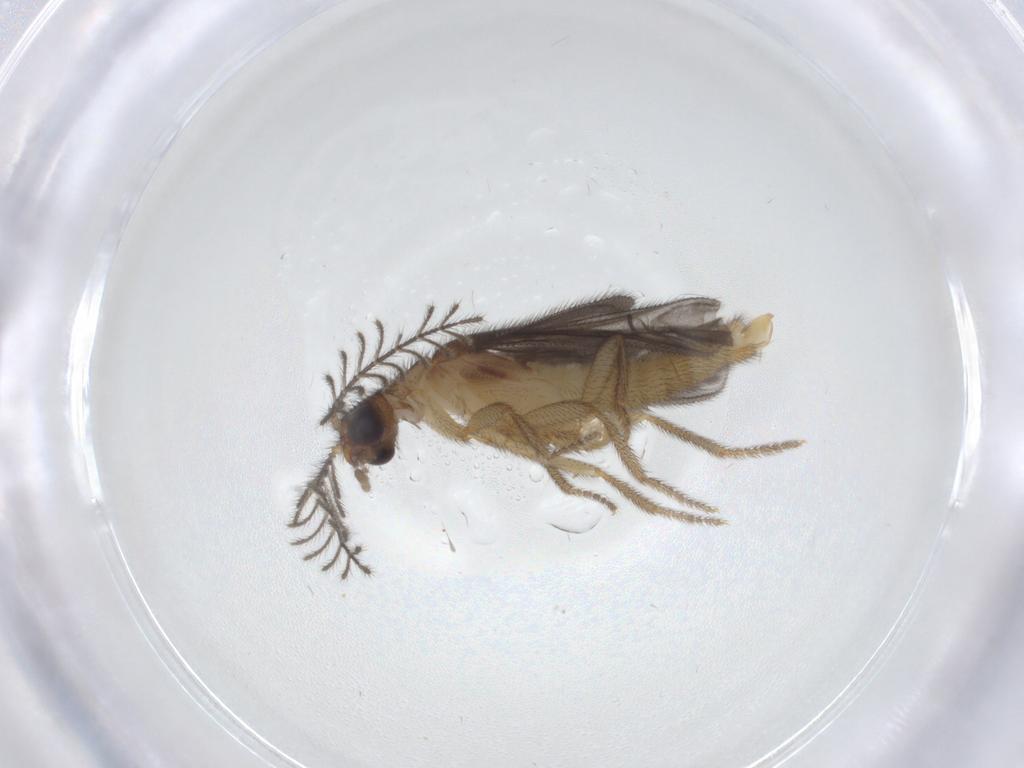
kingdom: Animalia
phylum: Arthropoda
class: Insecta
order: Coleoptera
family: Phengodidae
